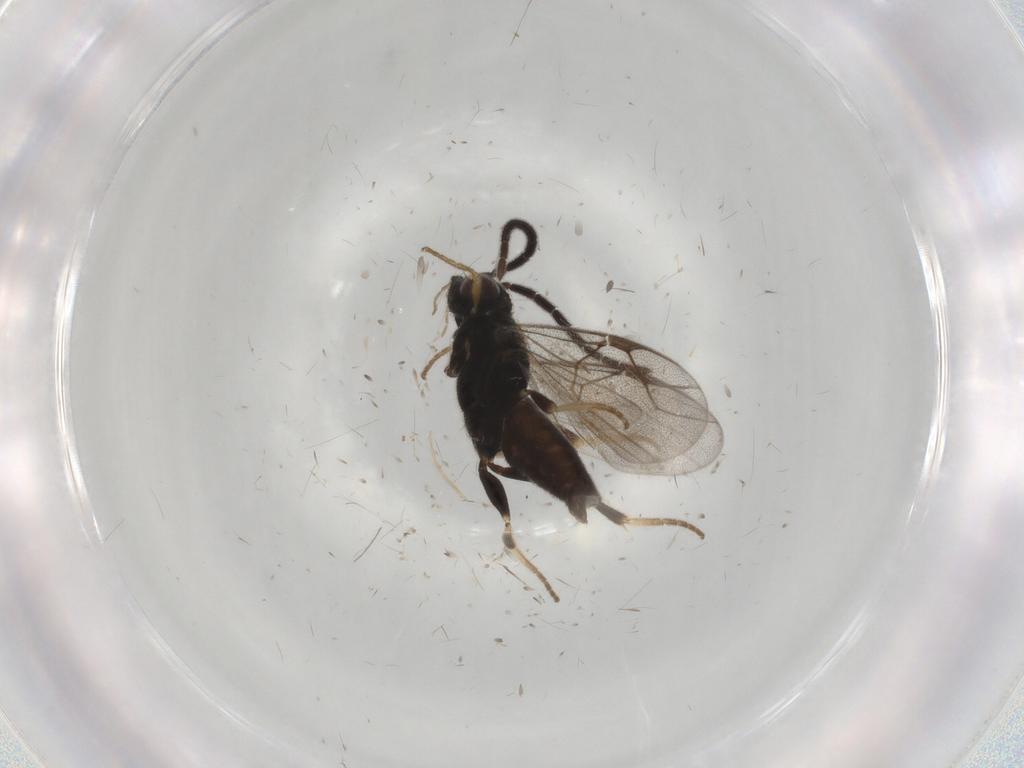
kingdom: Animalia
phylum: Arthropoda
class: Insecta
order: Hymenoptera
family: Dryinidae
